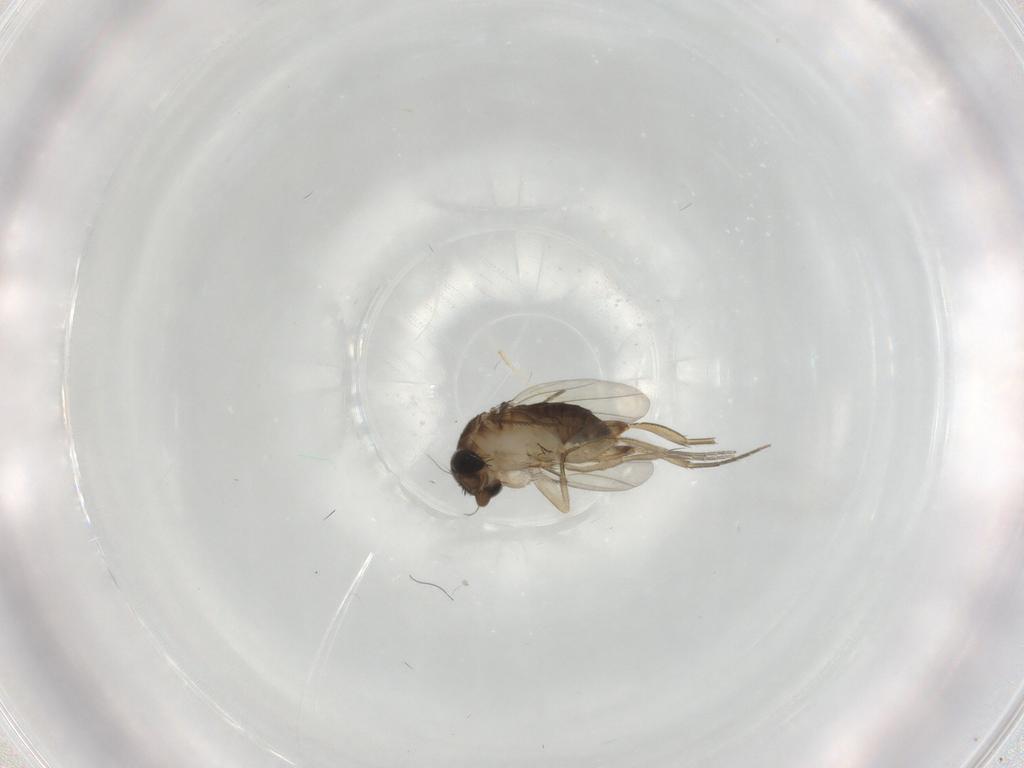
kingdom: Animalia
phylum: Arthropoda
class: Insecta
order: Diptera
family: Phoridae
